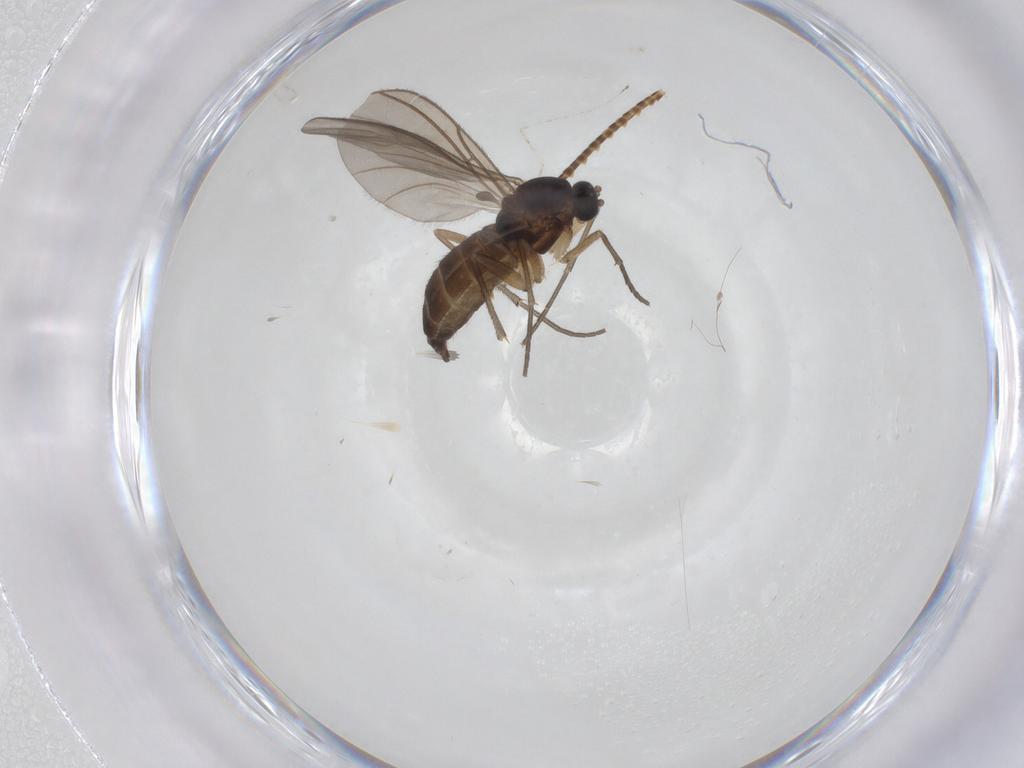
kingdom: Animalia
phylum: Arthropoda
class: Insecta
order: Diptera
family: Sciaridae
